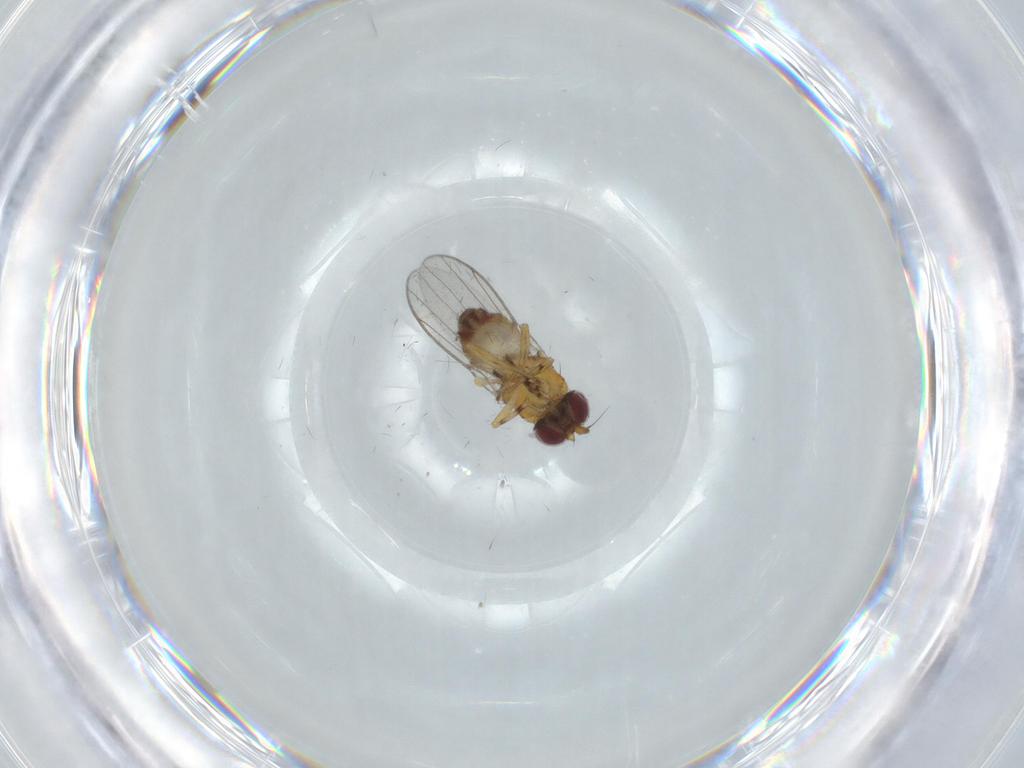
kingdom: Animalia
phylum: Arthropoda
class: Insecta
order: Diptera
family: Chloropidae
